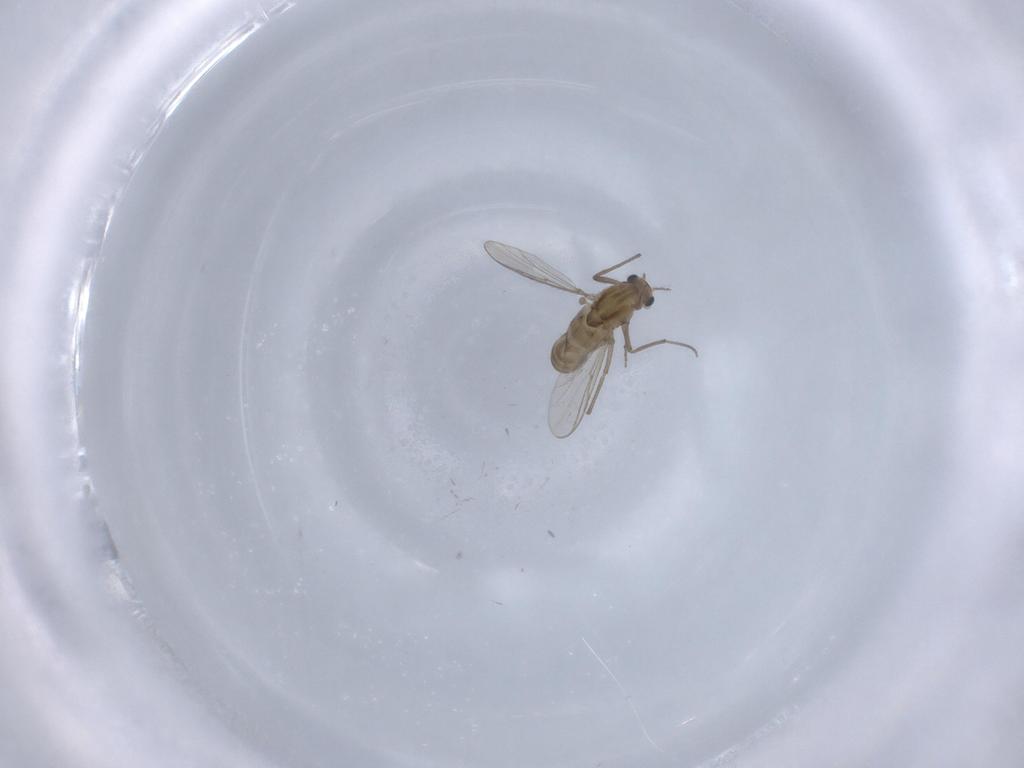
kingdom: Animalia
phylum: Arthropoda
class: Insecta
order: Diptera
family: Chironomidae
